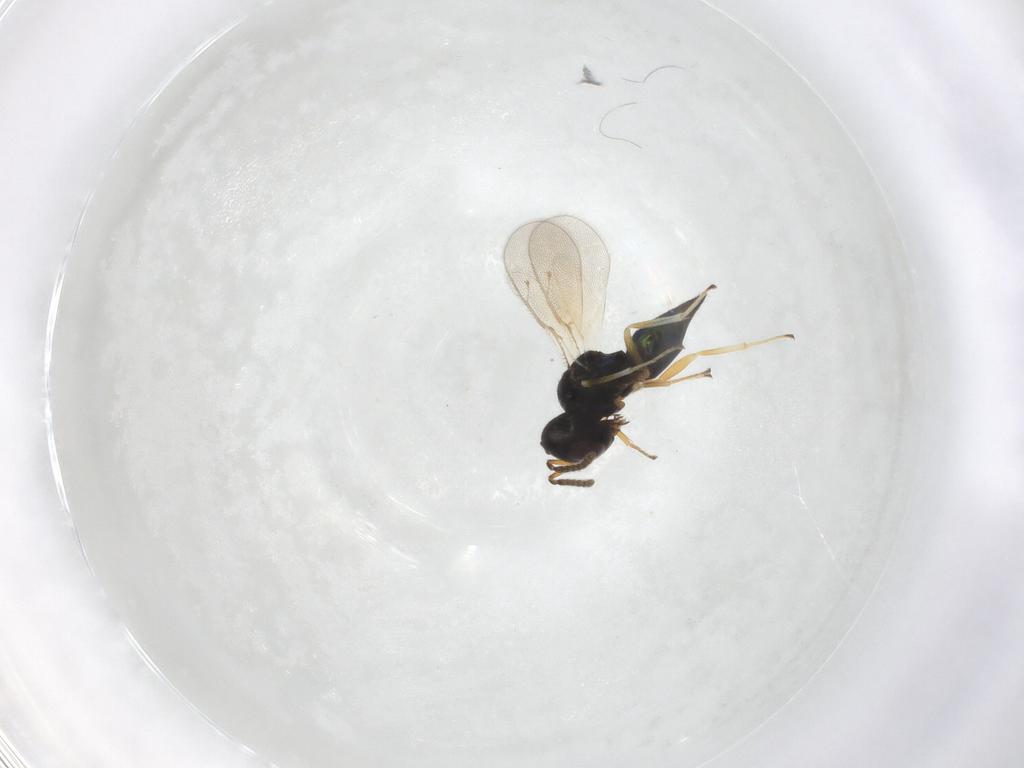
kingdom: Animalia
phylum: Arthropoda
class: Insecta
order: Hymenoptera
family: Pteromalidae
